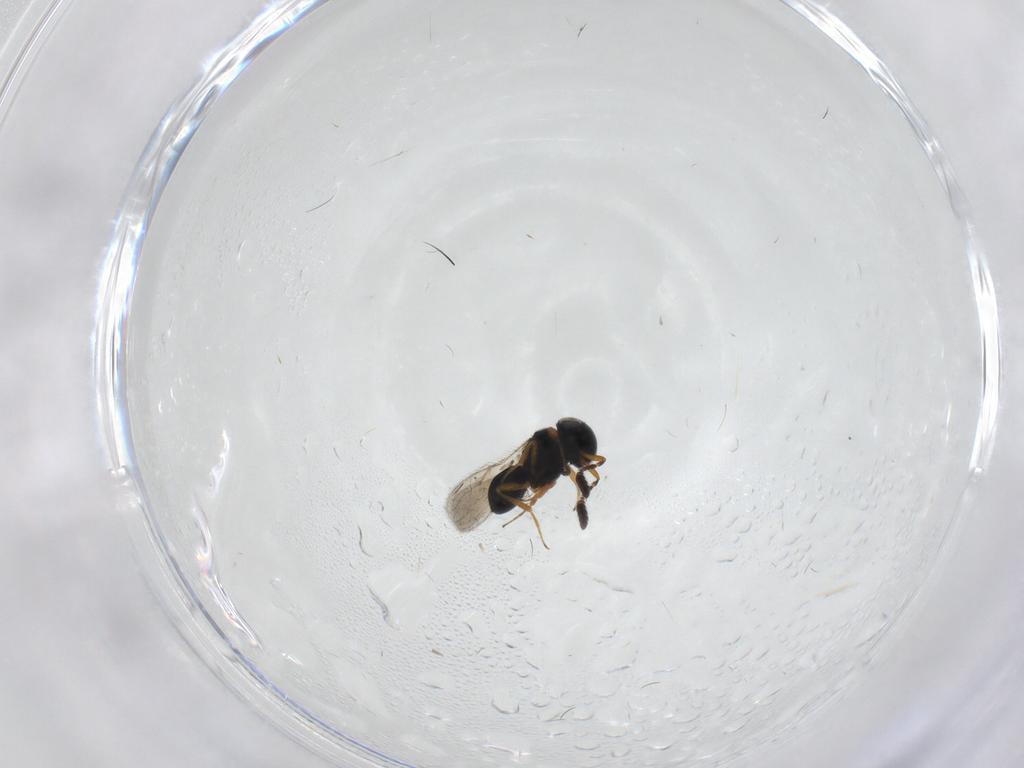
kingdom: Animalia
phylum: Arthropoda
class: Insecta
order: Hymenoptera
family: Scelionidae
